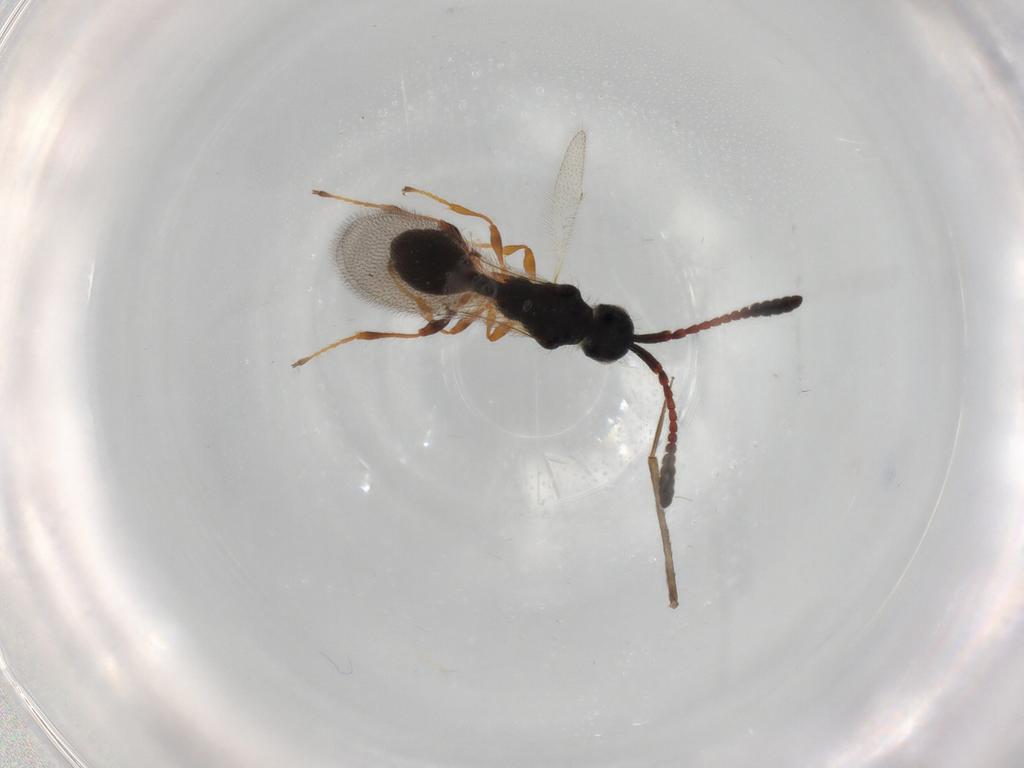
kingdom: Animalia
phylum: Arthropoda
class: Insecta
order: Hymenoptera
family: Diapriidae
